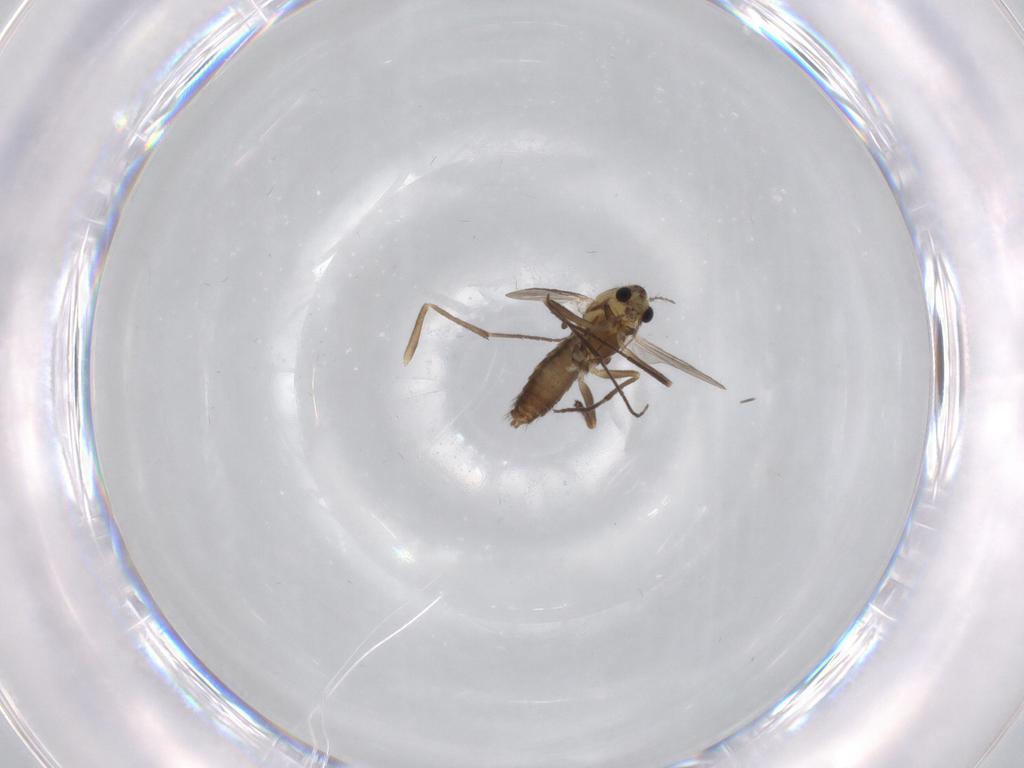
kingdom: Animalia
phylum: Arthropoda
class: Insecta
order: Diptera
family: Chironomidae
